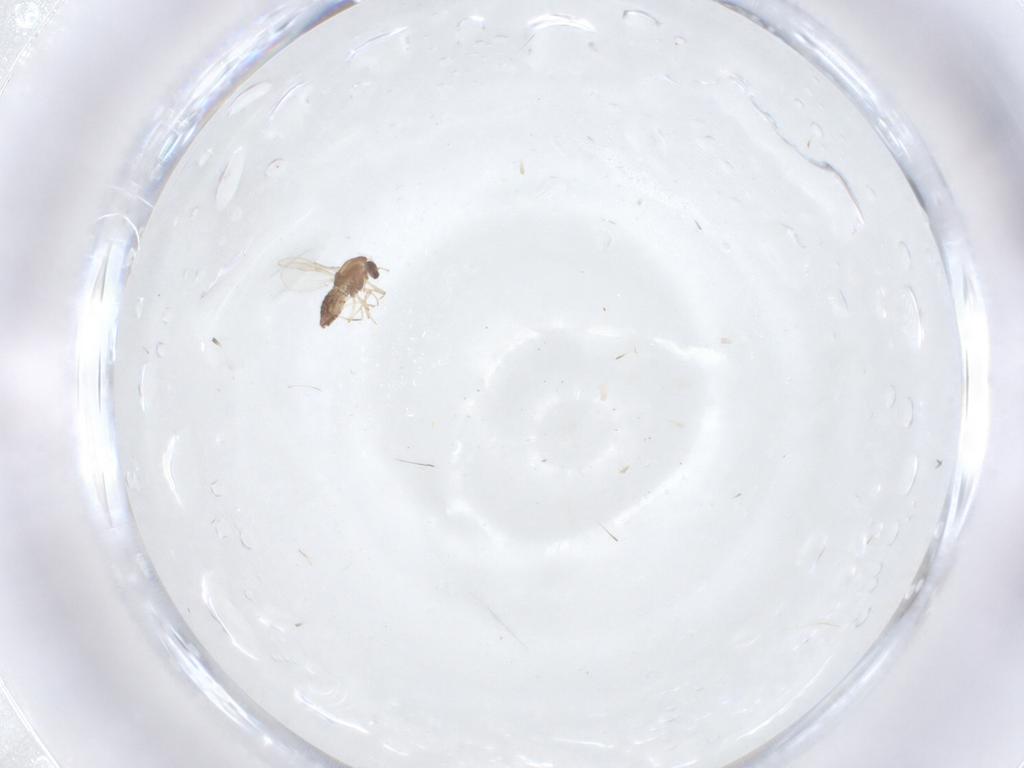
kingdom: Animalia
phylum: Arthropoda
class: Insecta
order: Diptera
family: Chironomidae
